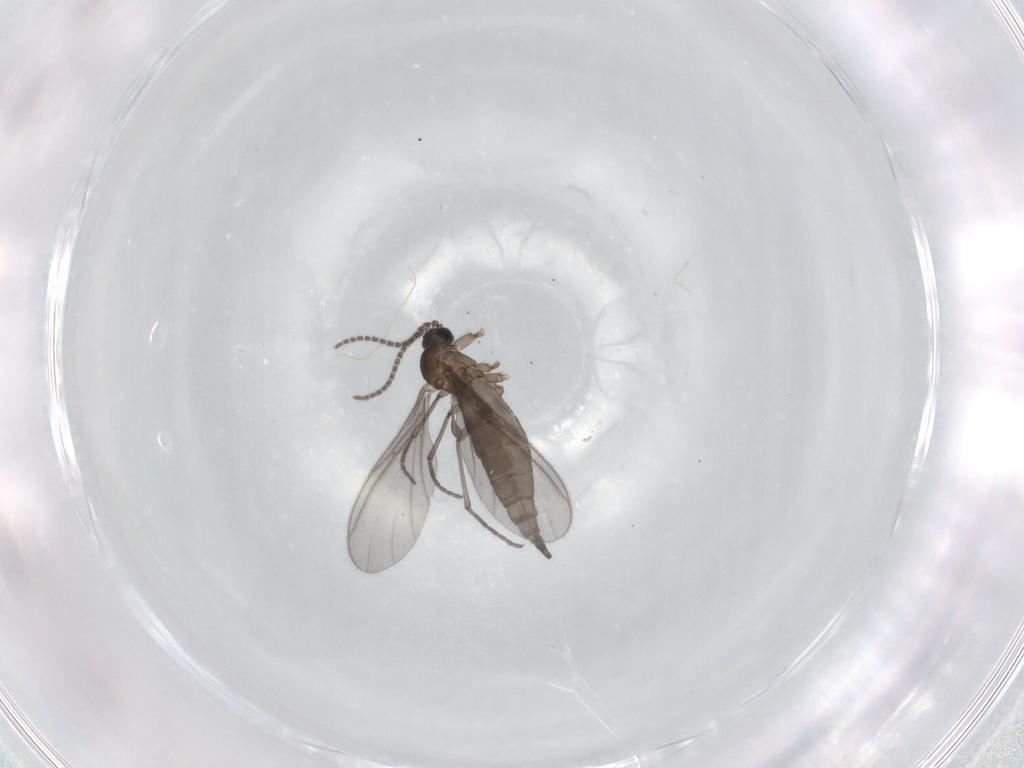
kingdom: Animalia
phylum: Arthropoda
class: Insecta
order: Diptera
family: Sciaridae
